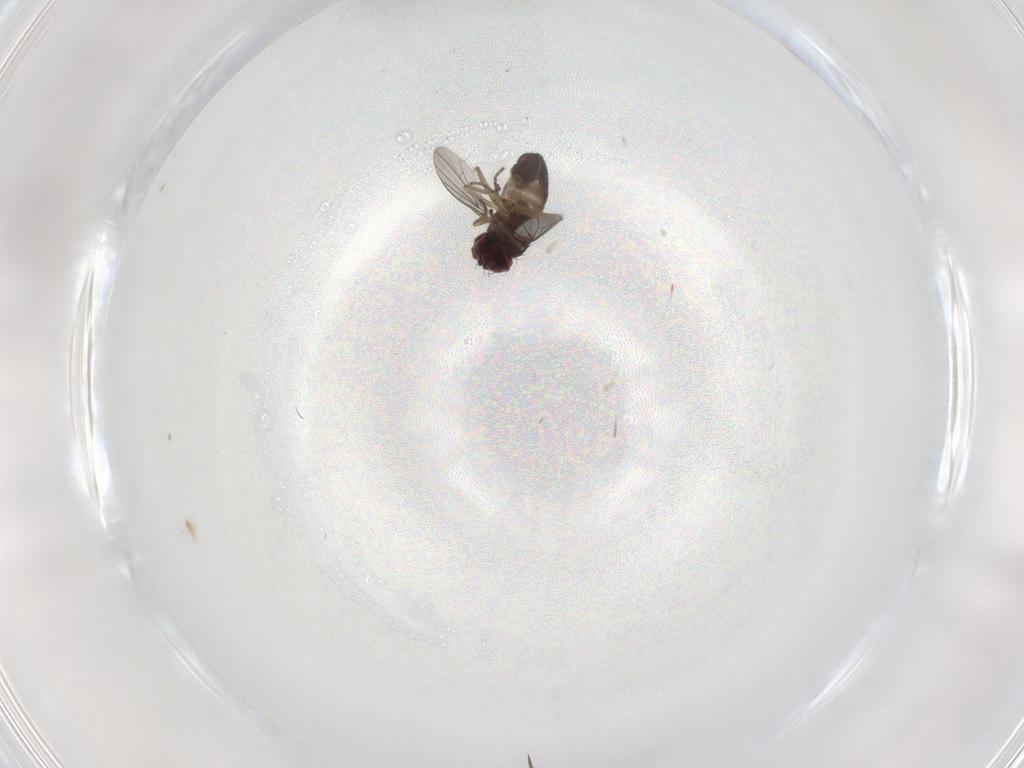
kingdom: Animalia
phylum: Arthropoda
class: Insecta
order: Diptera
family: Dolichopodidae
